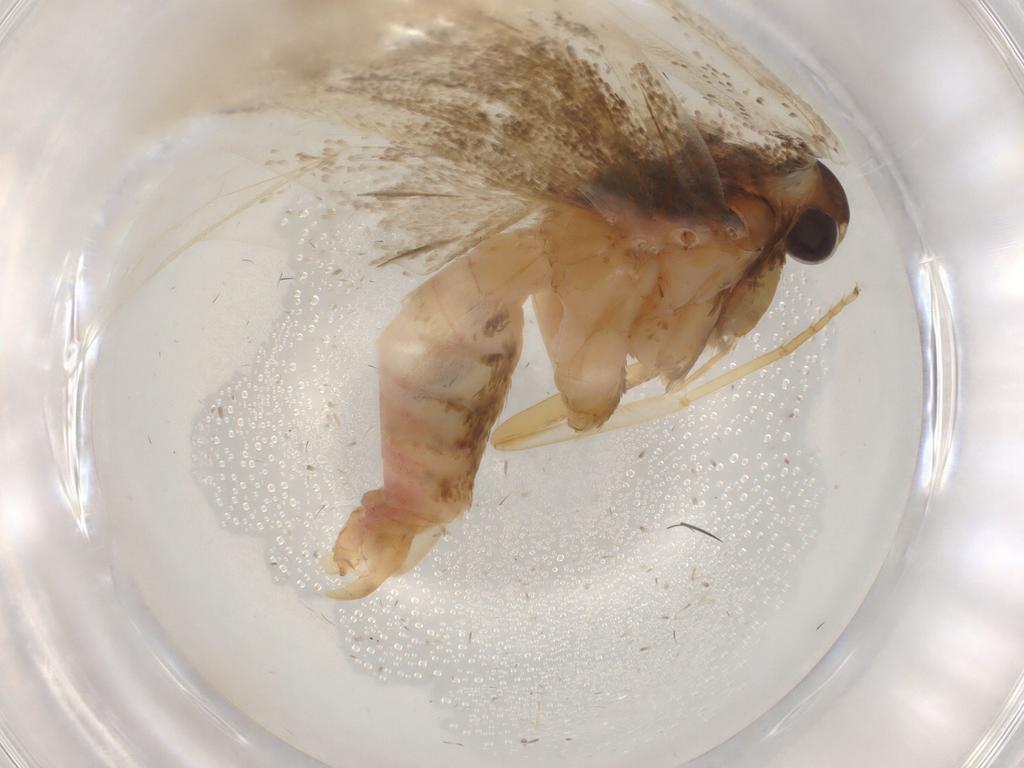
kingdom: Animalia
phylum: Arthropoda
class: Insecta
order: Lepidoptera
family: Lecithoceridae
